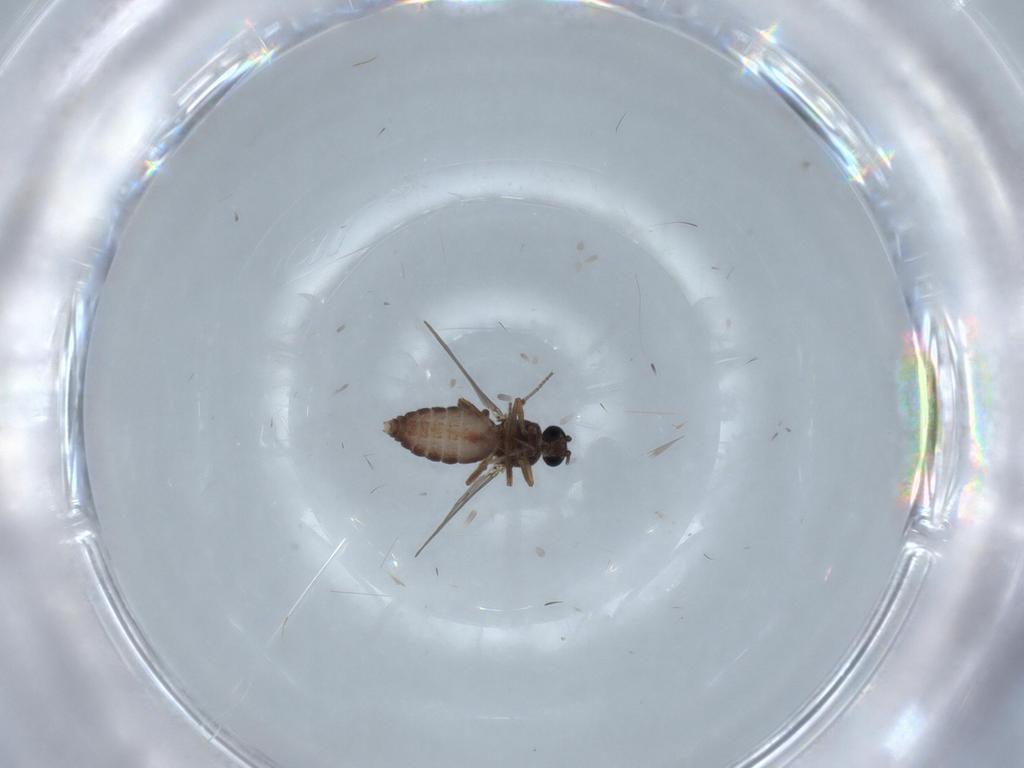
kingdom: Animalia
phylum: Arthropoda
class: Insecta
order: Diptera
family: Ceratopogonidae
